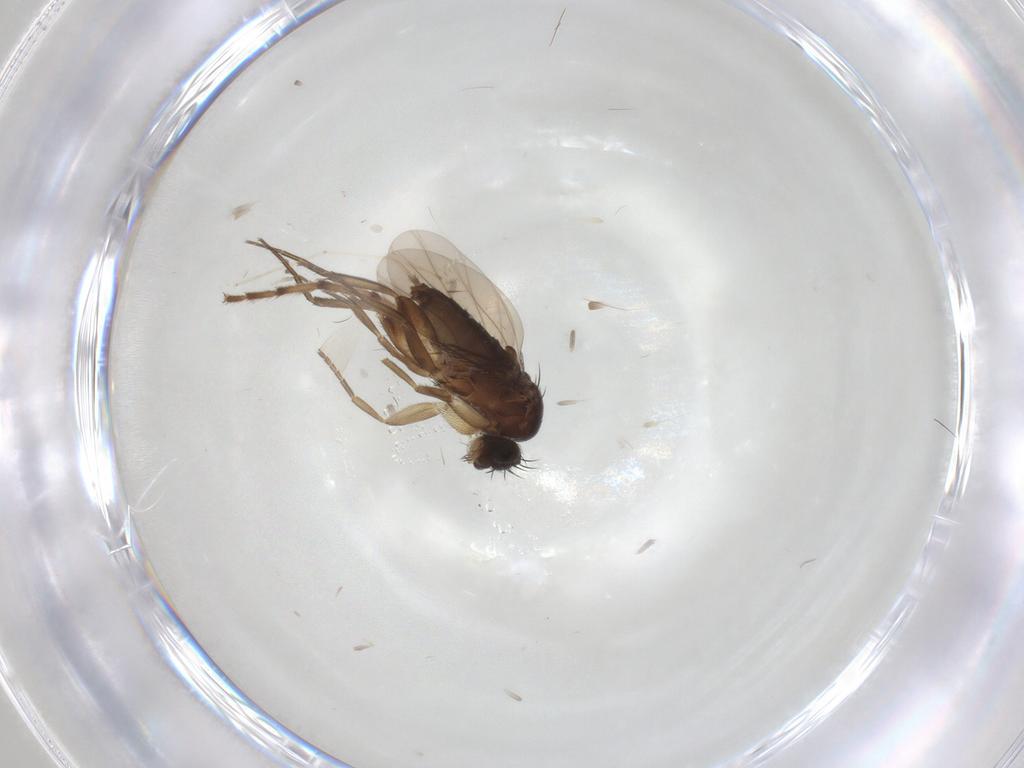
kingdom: Animalia
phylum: Arthropoda
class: Insecta
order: Diptera
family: Phoridae
